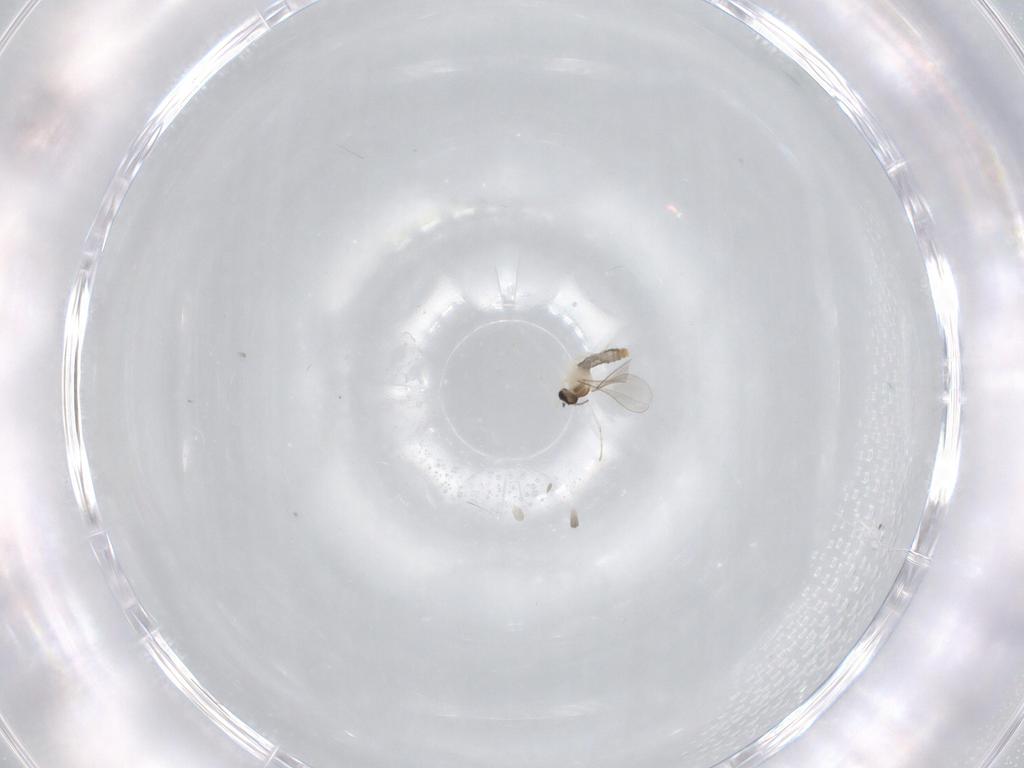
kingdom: Animalia
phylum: Arthropoda
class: Insecta
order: Diptera
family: Cecidomyiidae
